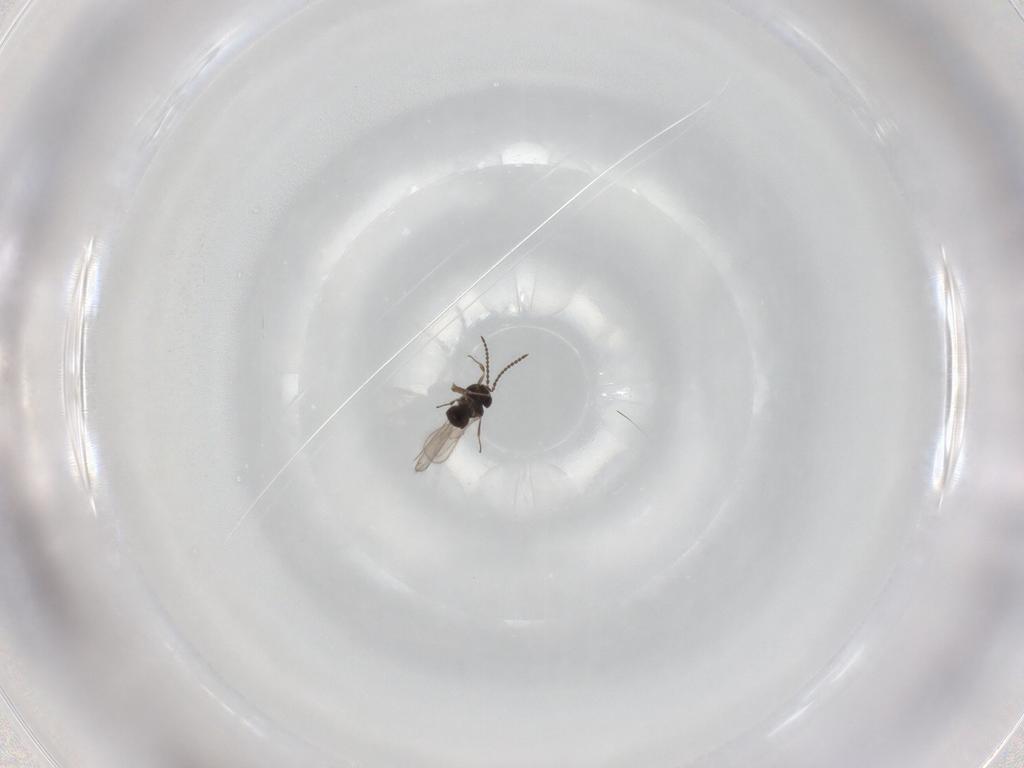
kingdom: Animalia
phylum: Arthropoda
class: Insecta
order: Hymenoptera
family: Scelionidae
